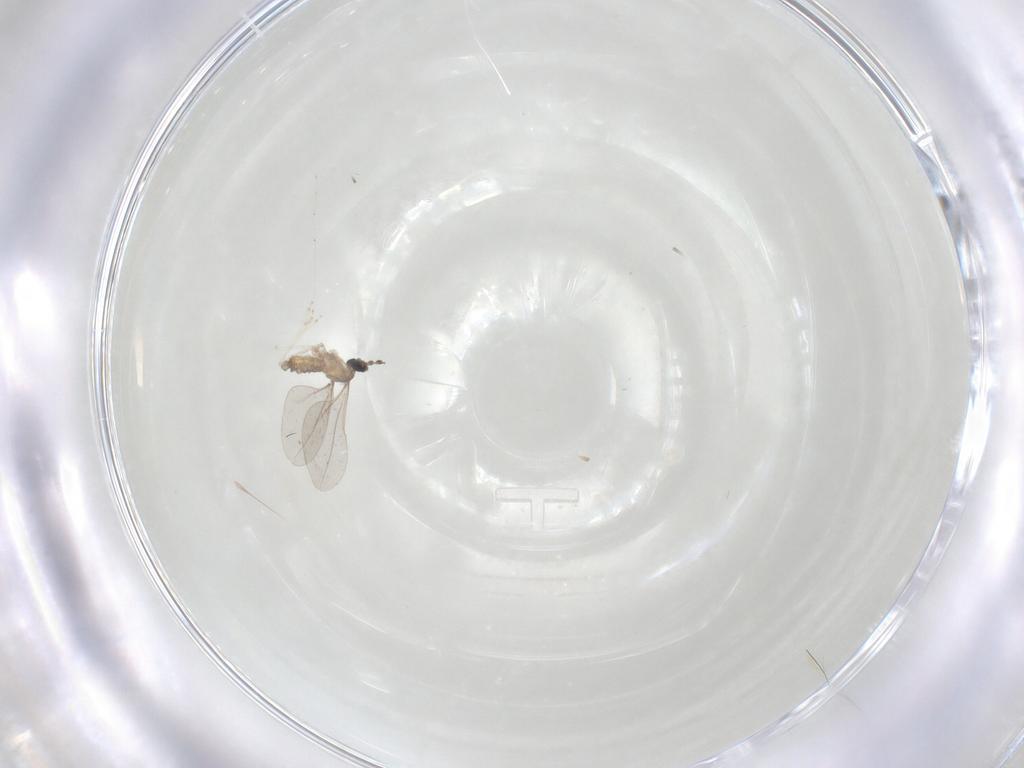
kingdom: Animalia
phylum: Arthropoda
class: Insecta
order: Diptera
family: Cecidomyiidae
